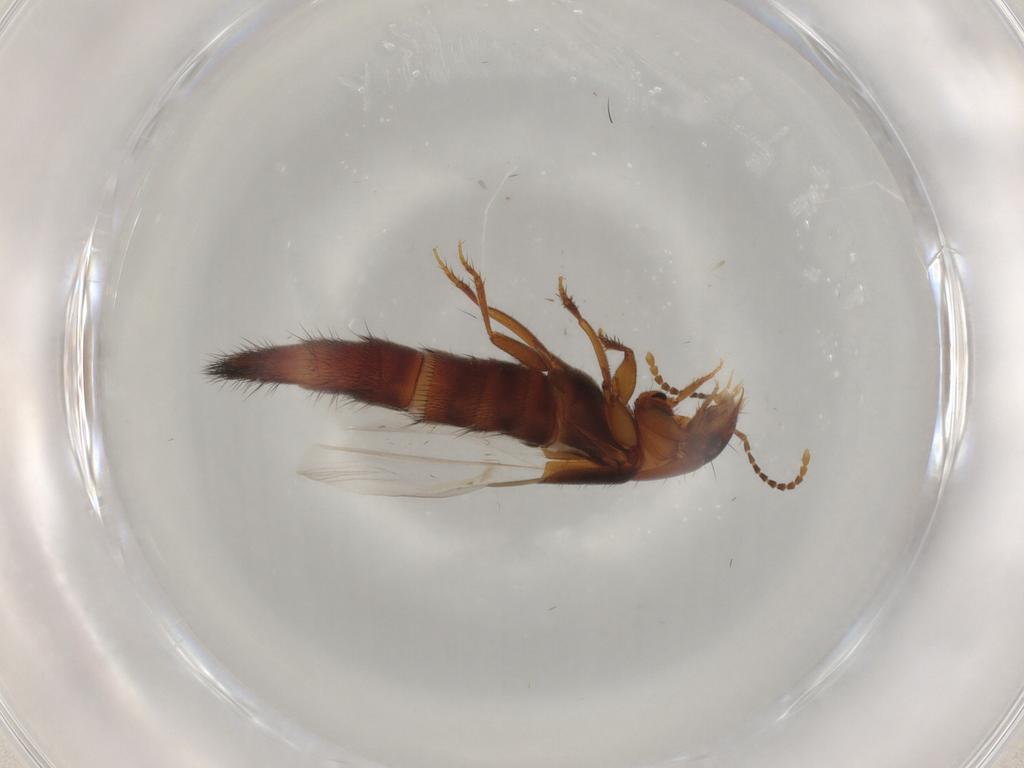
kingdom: Animalia
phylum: Arthropoda
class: Insecta
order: Coleoptera
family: Staphylinidae
